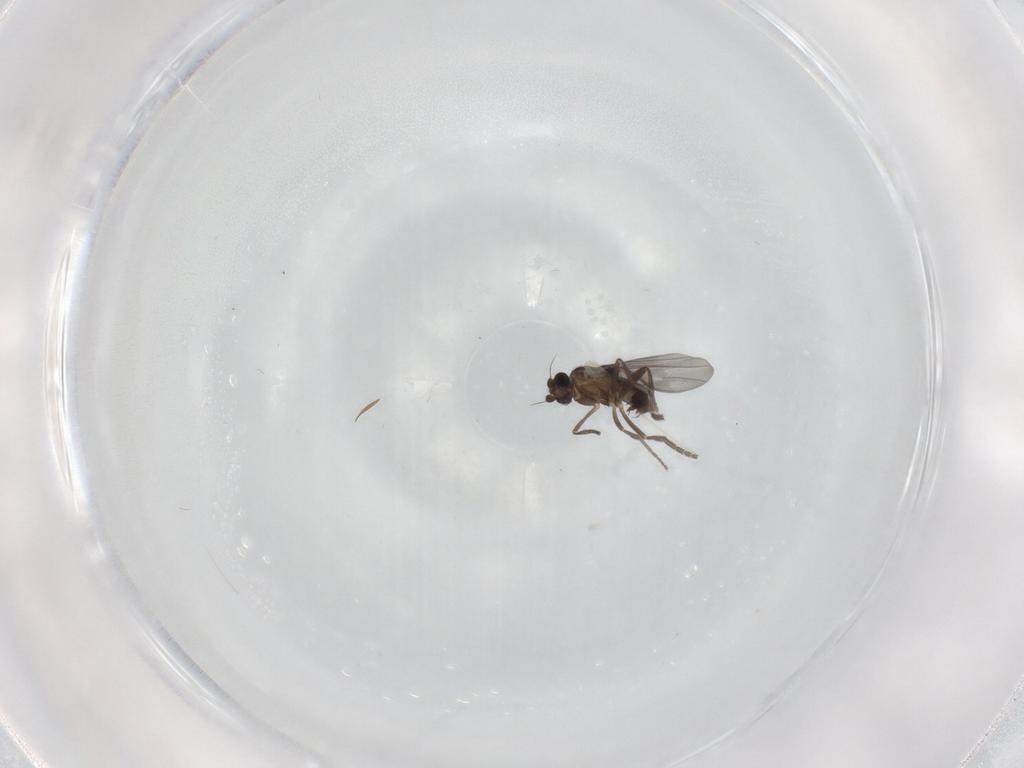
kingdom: Animalia
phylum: Arthropoda
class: Insecta
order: Diptera
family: Phoridae
